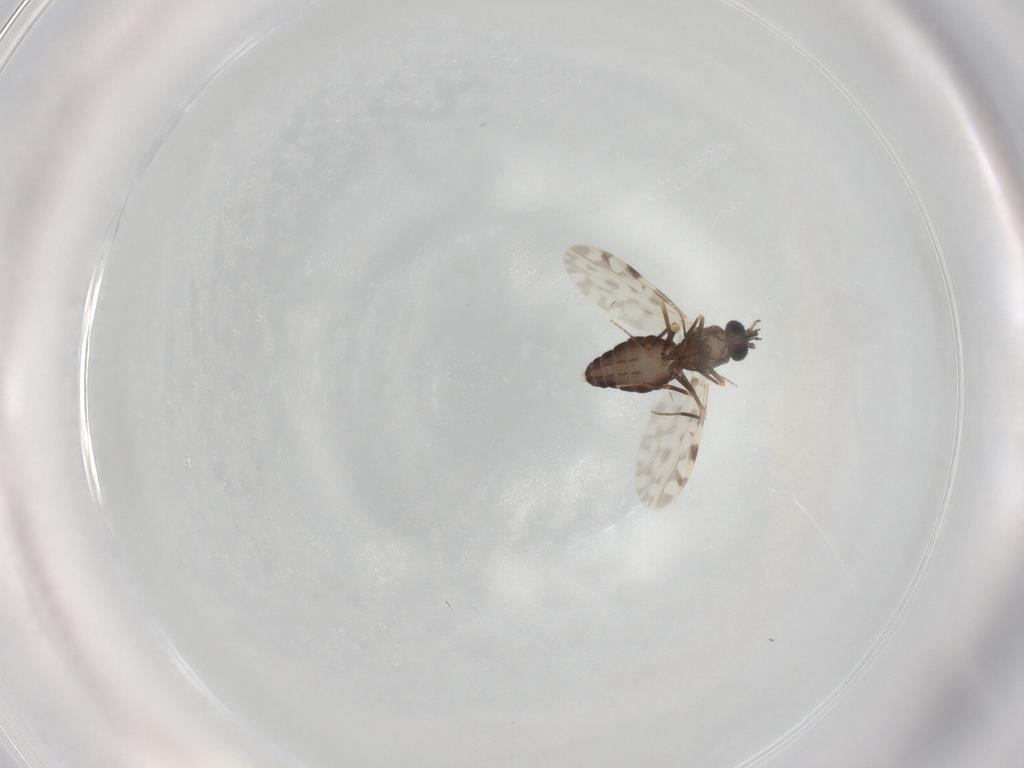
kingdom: Animalia
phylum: Arthropoda
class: Insecta
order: Diptera
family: Ceratopogonidae
